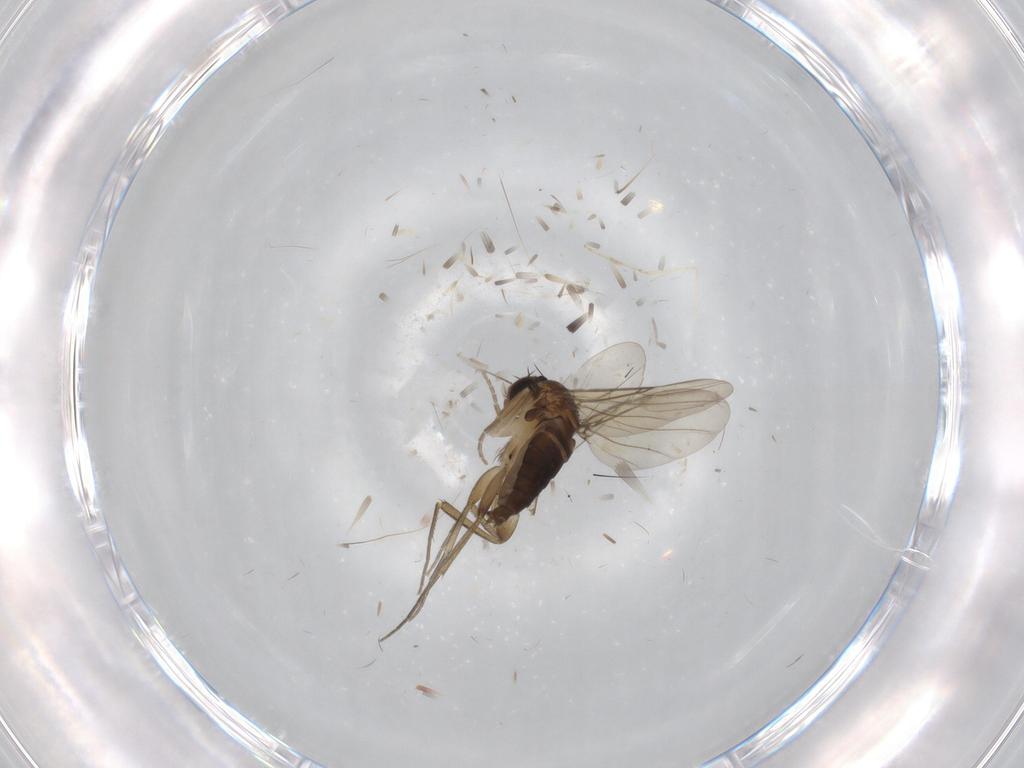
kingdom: Animalia
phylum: Arthropoda
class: Insecta
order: Diptera
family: Phoridae
